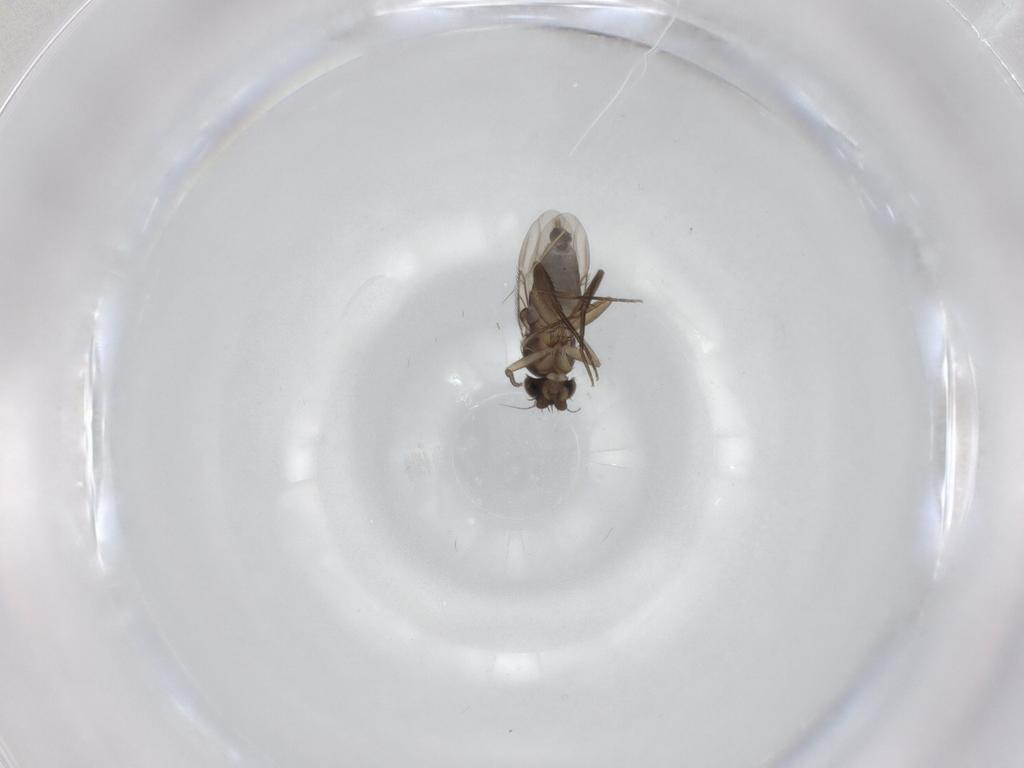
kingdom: Animalia
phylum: Arthropoda
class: Insecta
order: Diptera
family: Phoridae
